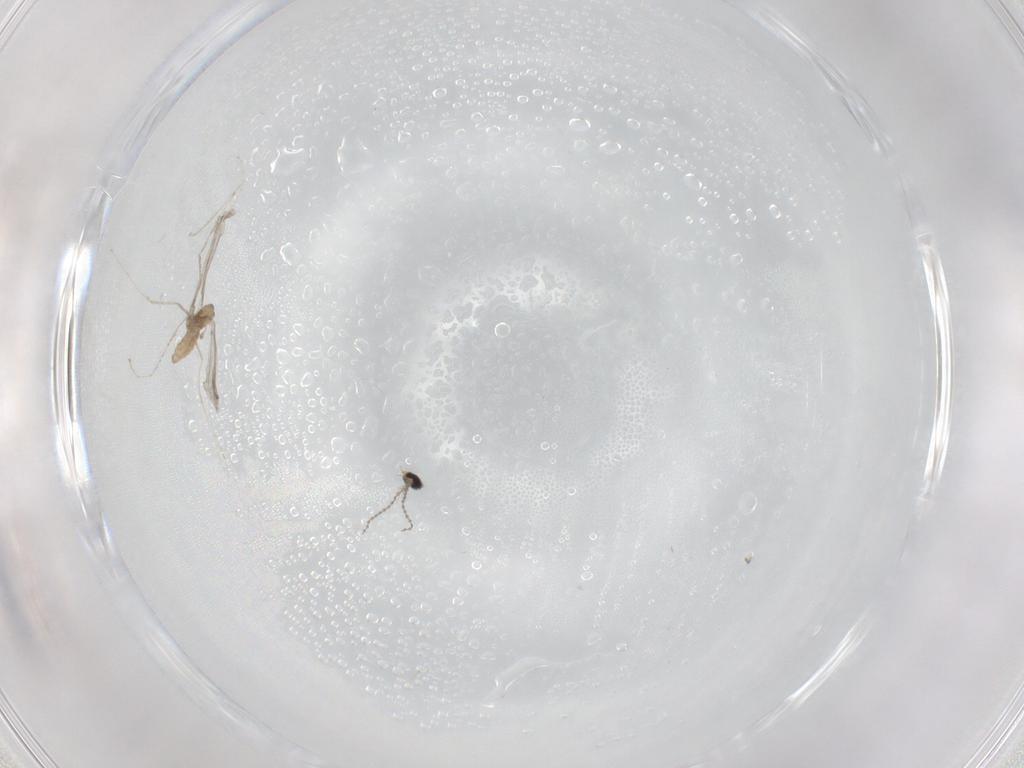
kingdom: Animalia
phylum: Arthropoda
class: Insecta
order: Diptera
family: Cecidomyiidae
